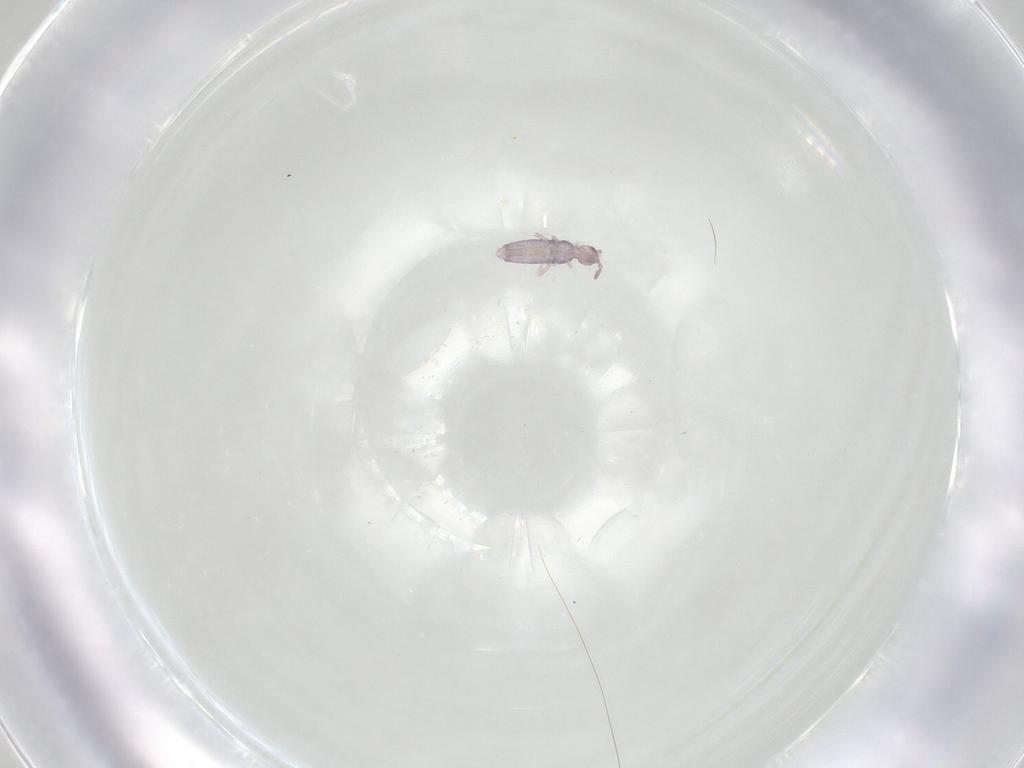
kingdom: Animalia
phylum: Arthropoda
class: Collembola
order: Entomobryomorpha
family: Entomobryidae
